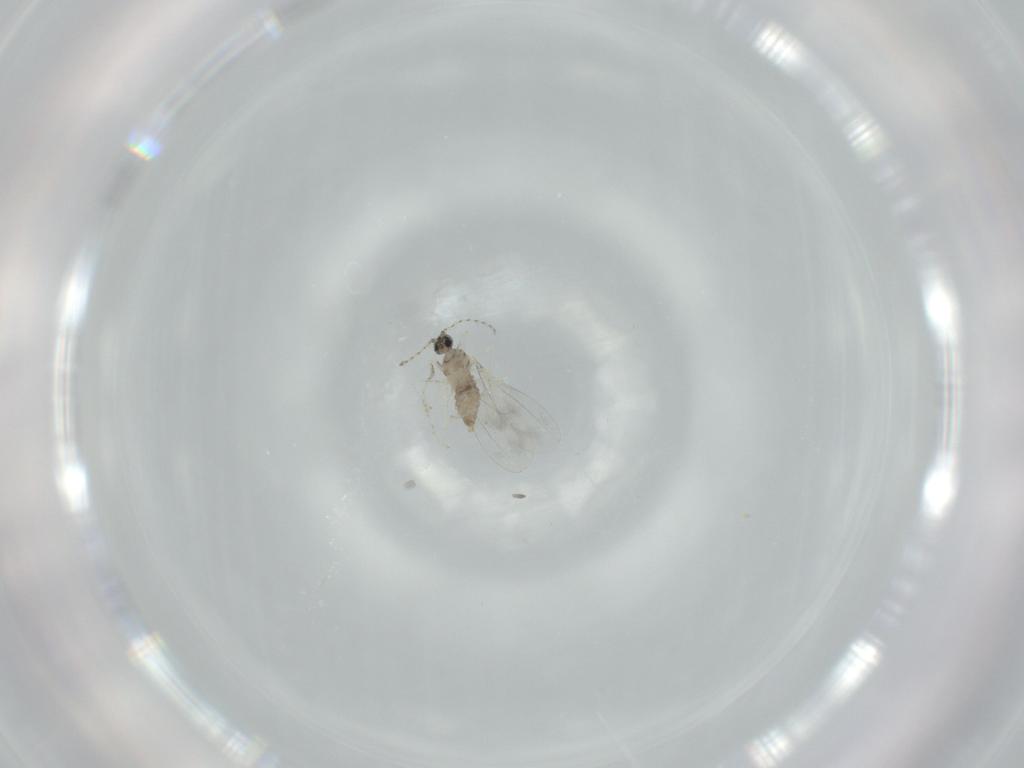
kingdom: Animalia
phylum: Arthropoda
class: Insecta
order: Diptera
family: Cecidomyiidae
